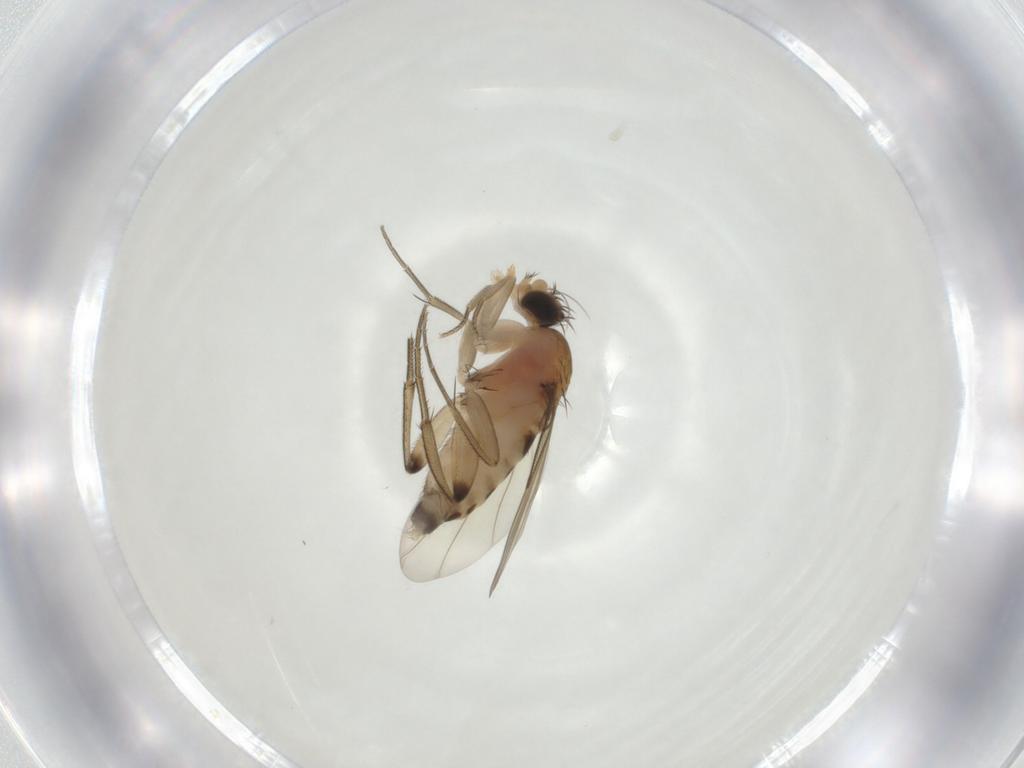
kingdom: Animalia
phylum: Arthropoda
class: Insecta
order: Diptera
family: Phoridae
